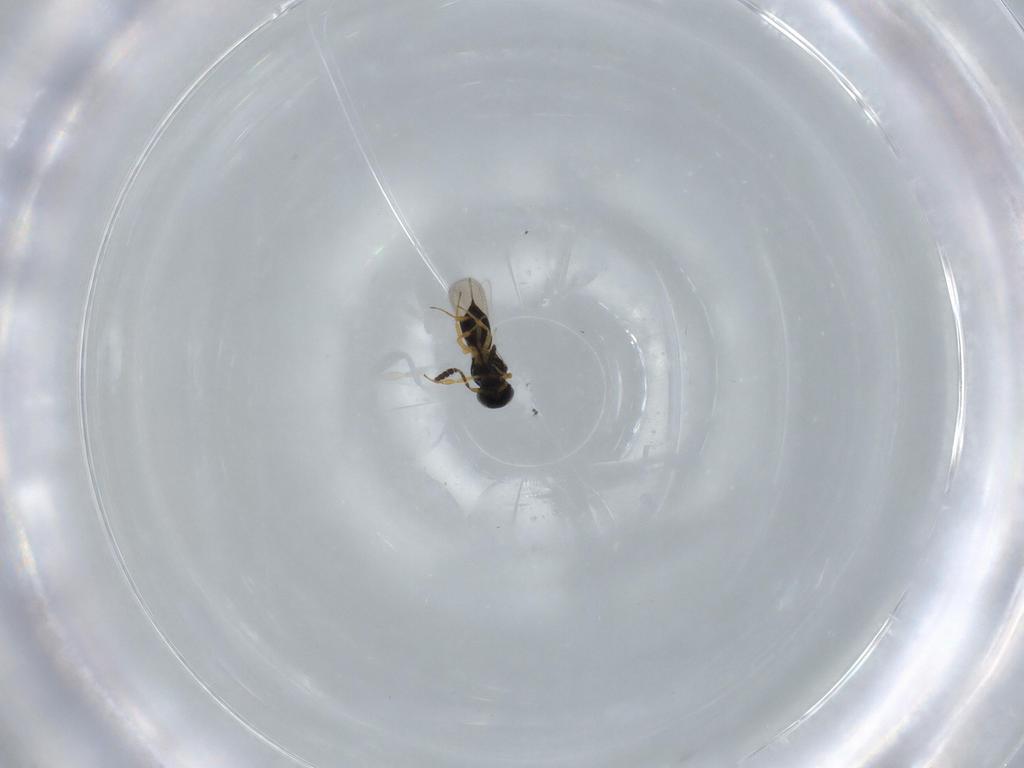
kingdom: Animalia
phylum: Arthropoda
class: Insecta
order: Hymenoptera
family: Scelionidae
